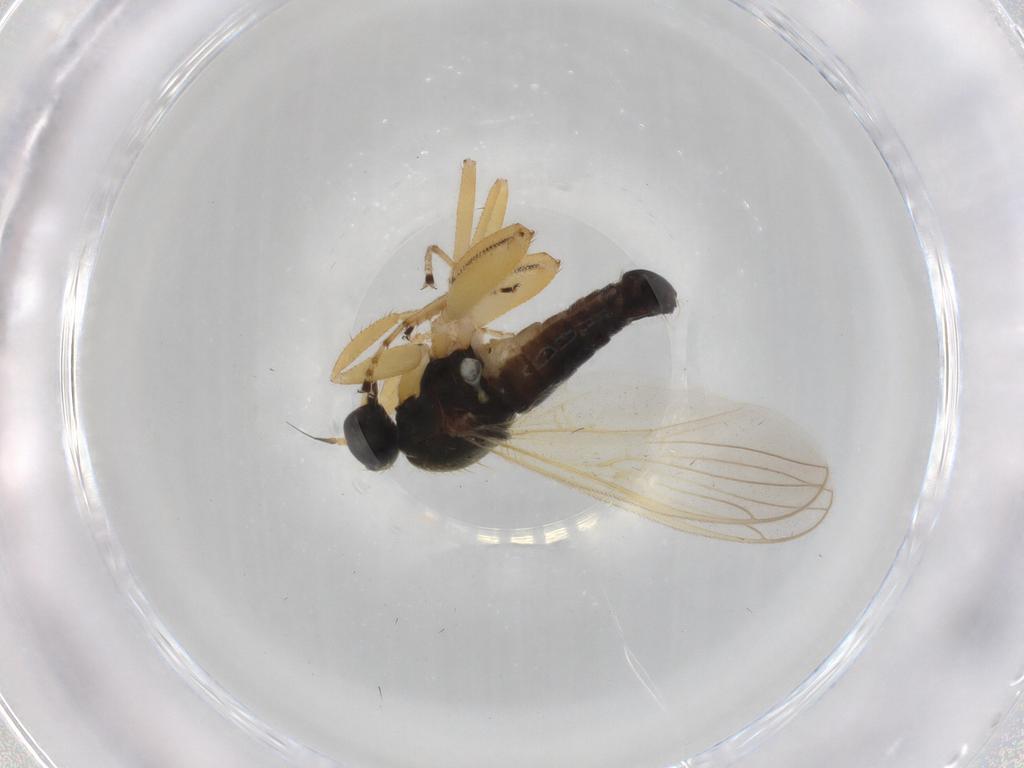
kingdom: Animalia
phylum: Arthropoda
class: Insecta
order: Diptera
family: Hybotidae
